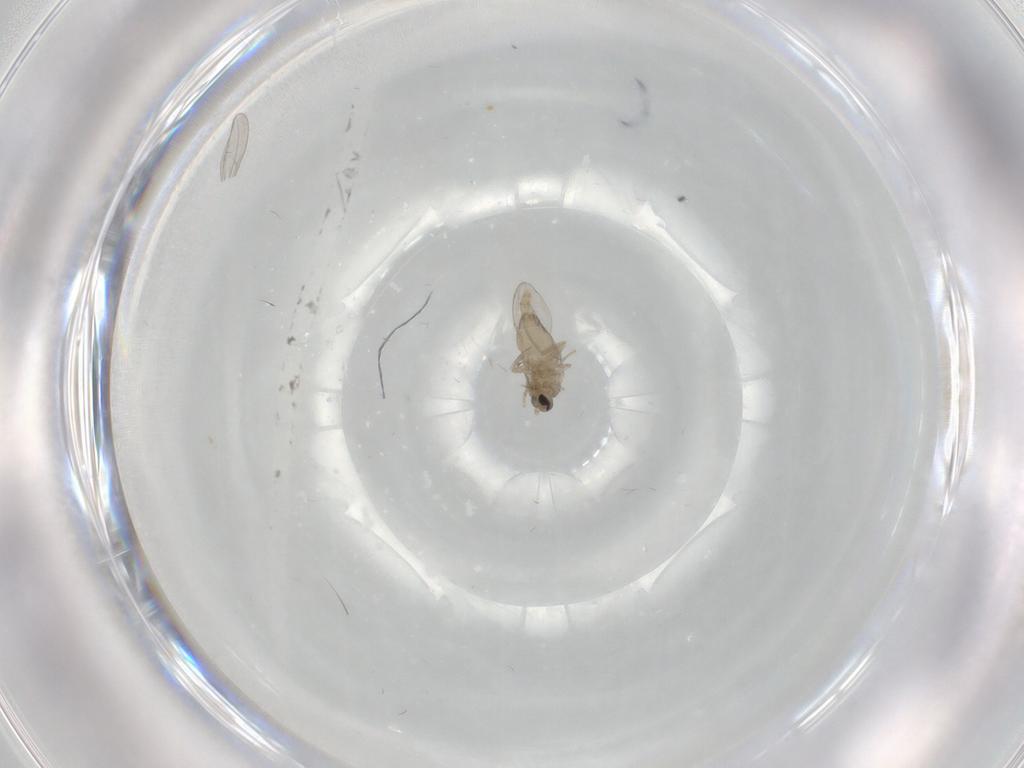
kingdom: Animalia
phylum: Arthropoda
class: Insecta
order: Diptera
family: Cecidomyiidae
